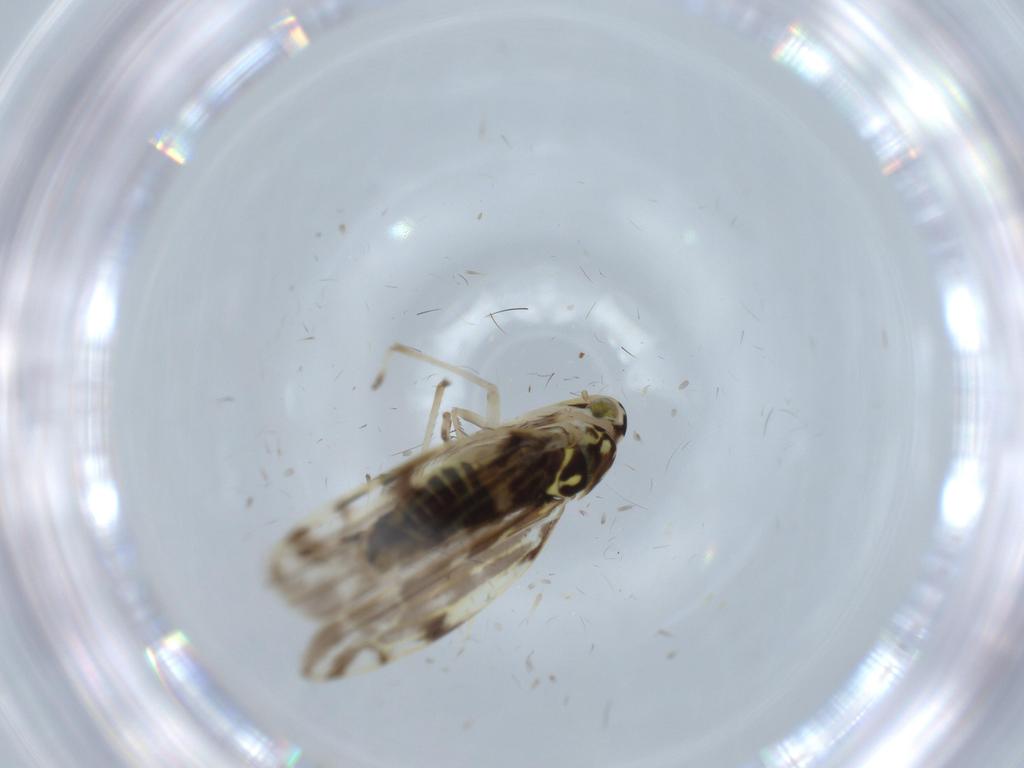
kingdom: Animalia
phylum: Arthropoda
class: Insecta
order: Hemiptera
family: Cicadellidae
